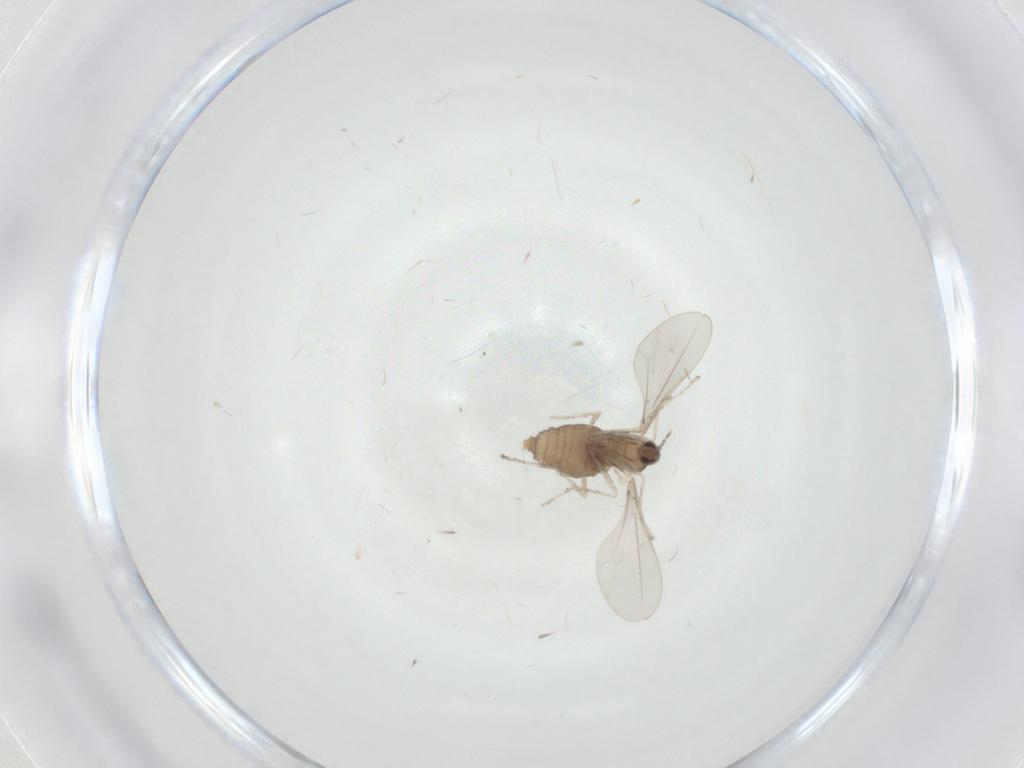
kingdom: Animalia
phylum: Arthropoda
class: Insecta
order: Diptera
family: Cecidomyiidae
